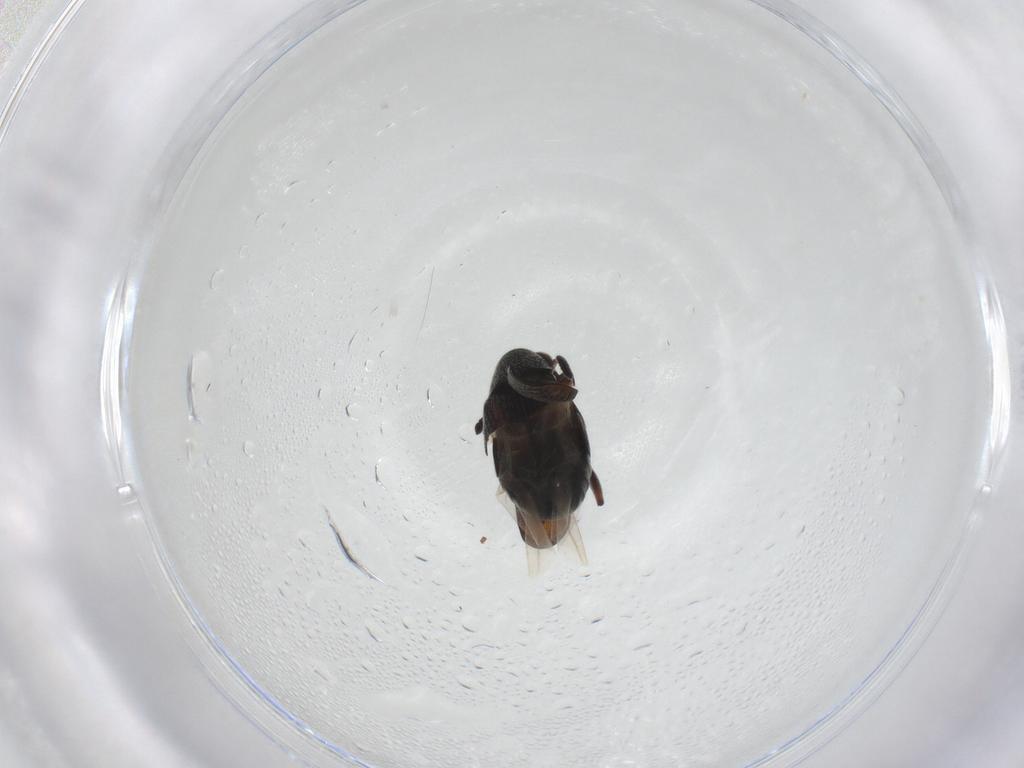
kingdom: Animalia
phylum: Arthropoda
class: Insecta
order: Coleoptera
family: Chrysomelidae
